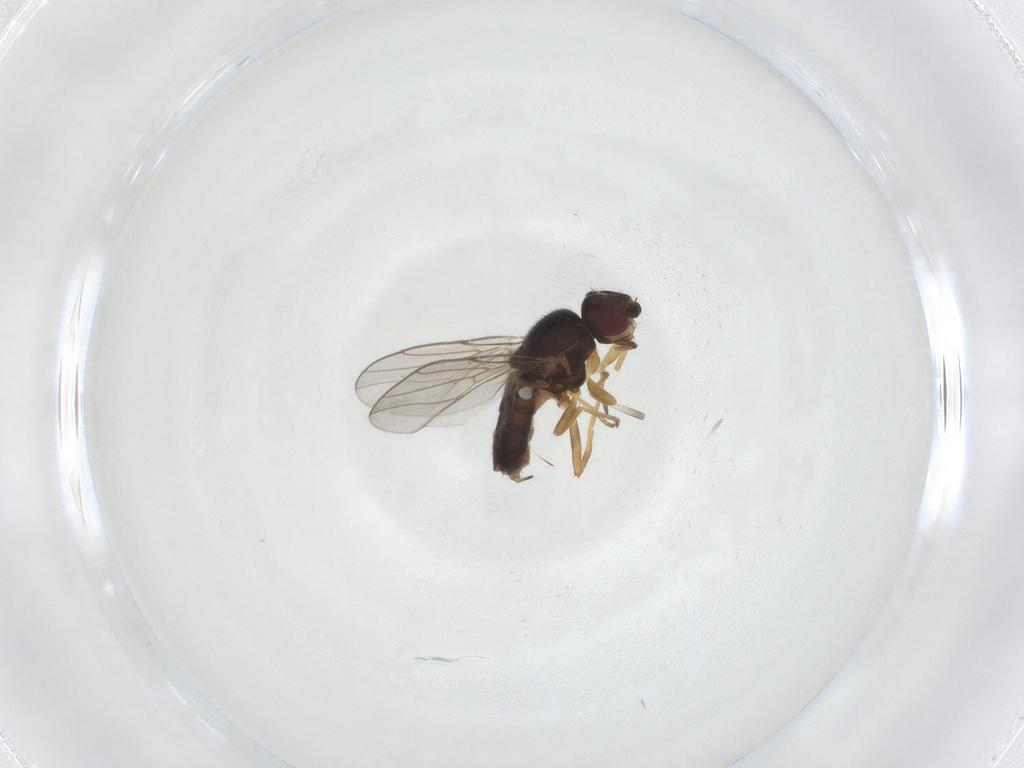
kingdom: Animalia
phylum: Arthropoda
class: Insecta
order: Diptera
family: Chloropidae
